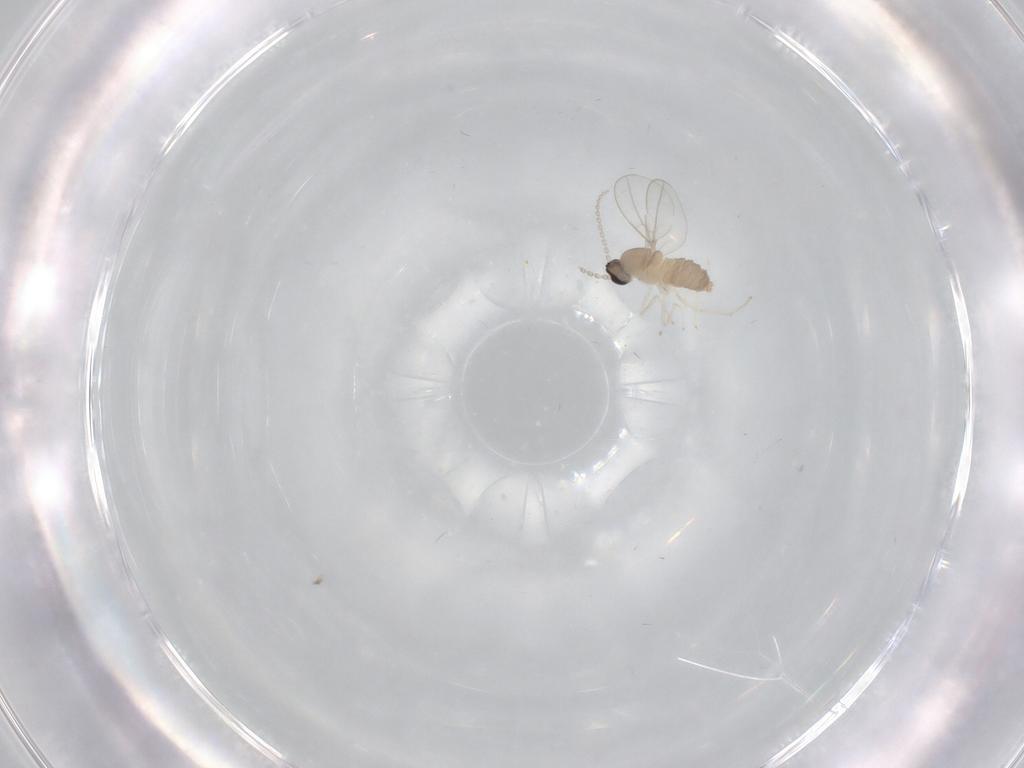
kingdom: Animalia
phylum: Arthropoda
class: Insecta
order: Diptera
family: Cecidomyiidae
